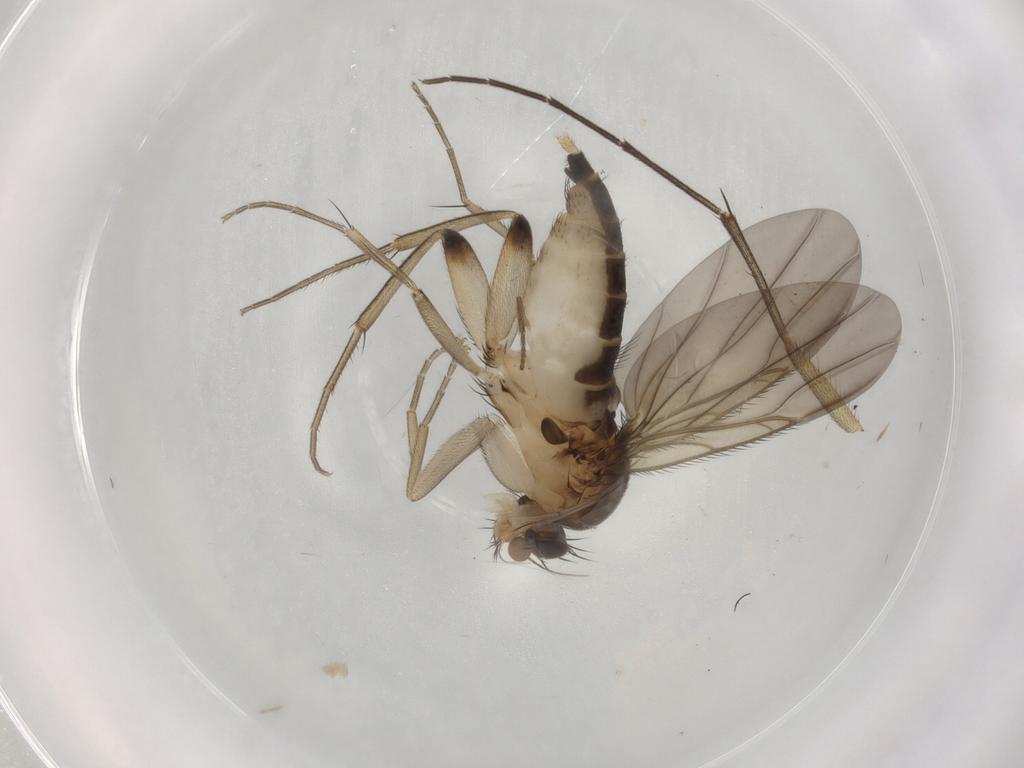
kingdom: Animalia
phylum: Arthropoda
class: Insecta
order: Diptera
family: Phoridae
